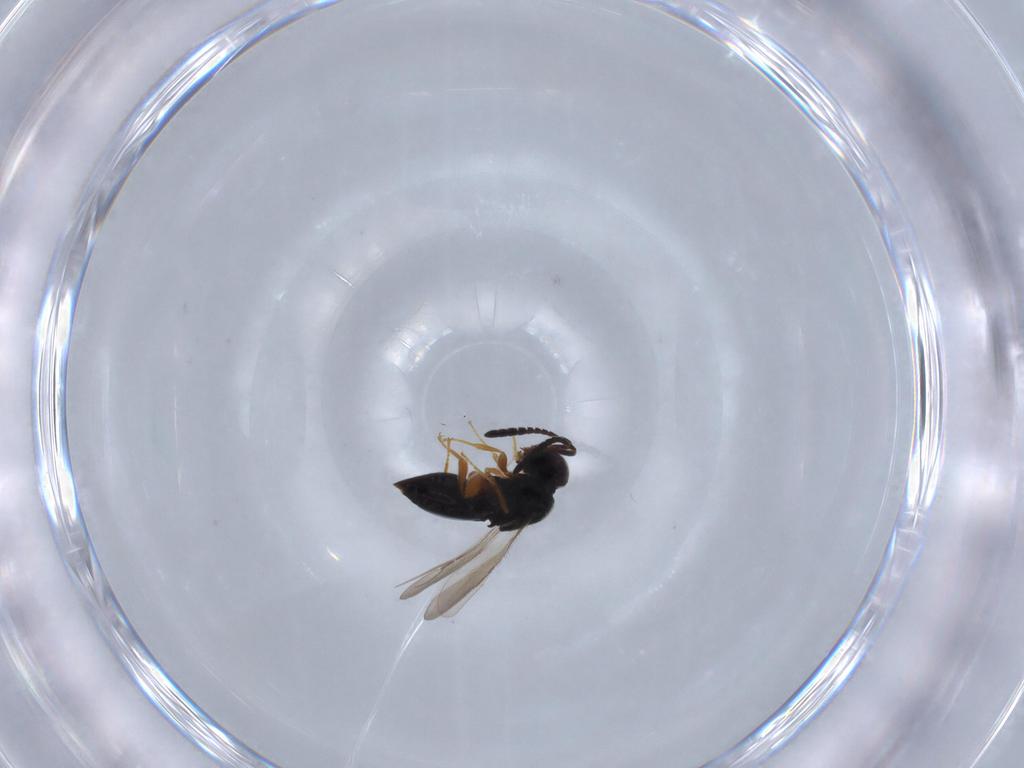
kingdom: Animalia
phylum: Arthropoda
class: Insecta
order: Hymenoptera
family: Ceraphronidae
